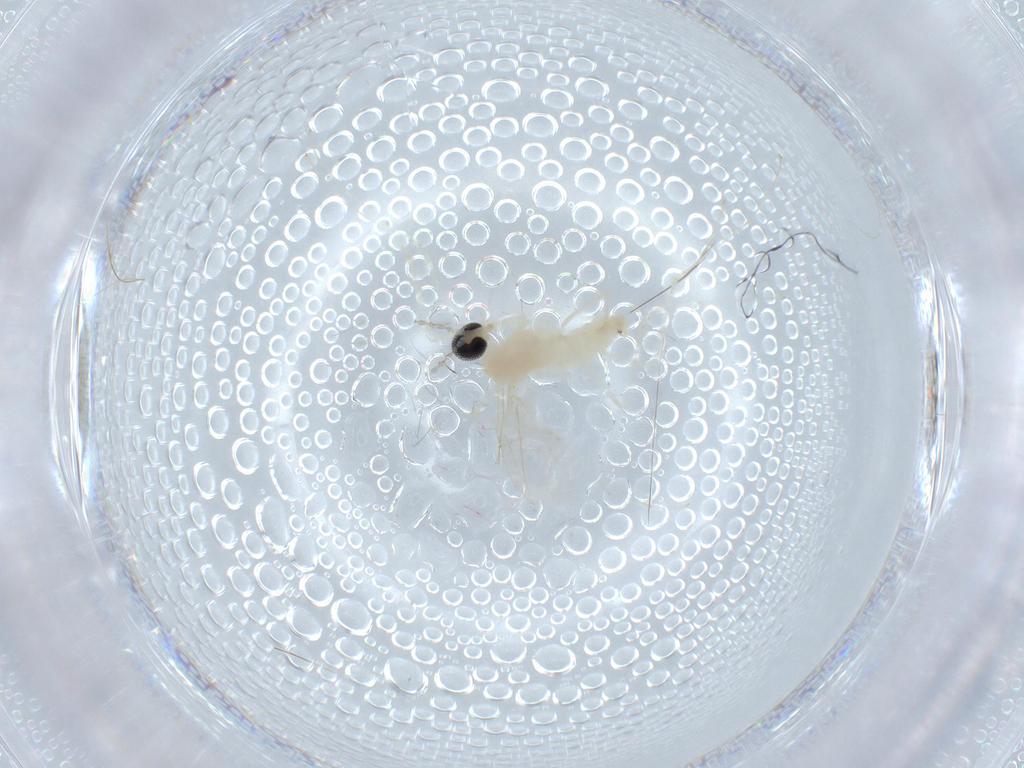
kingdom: Animalia
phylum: Arthropoda
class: Insecta
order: Diptera
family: Cecidomyiidae
